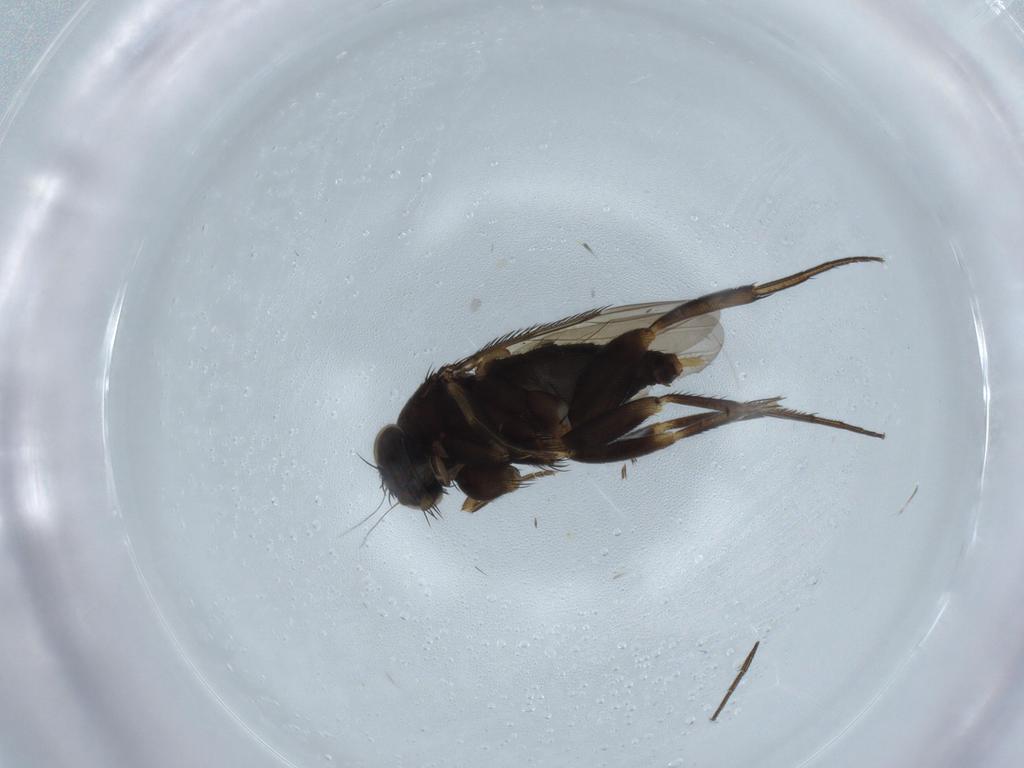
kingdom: Animalia
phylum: Arthropoda
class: Insecta
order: Diptera
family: Phoridae
